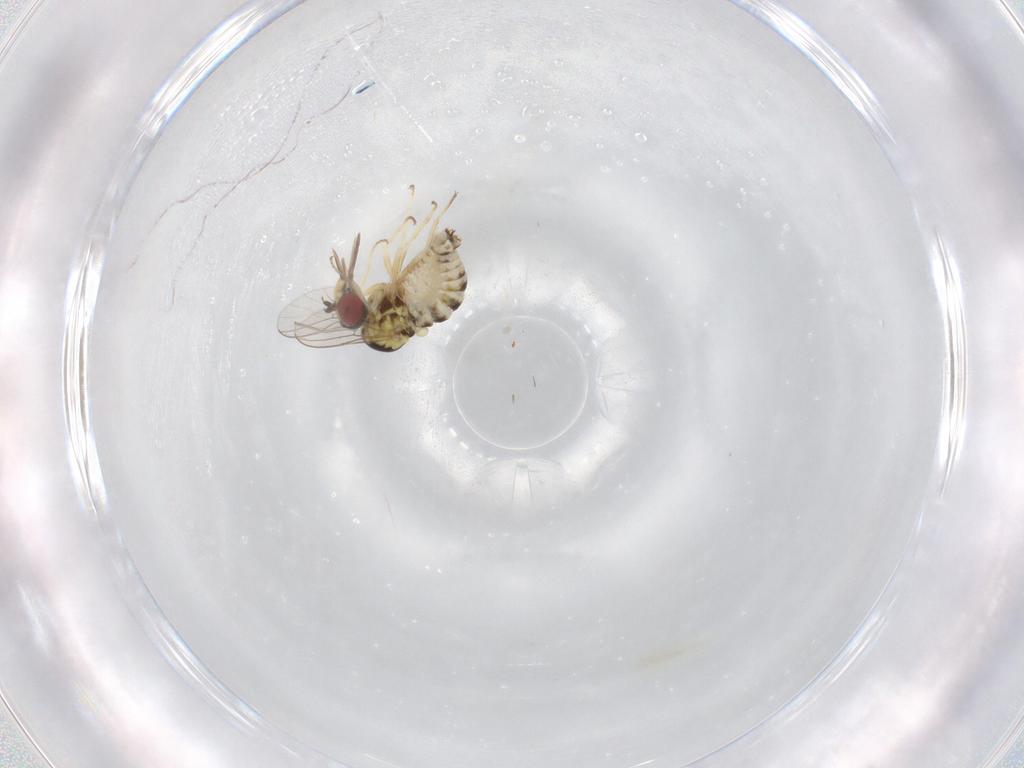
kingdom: Animalia
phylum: Arthropoda
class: Insecta
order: Diptera
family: Bombyliidae
